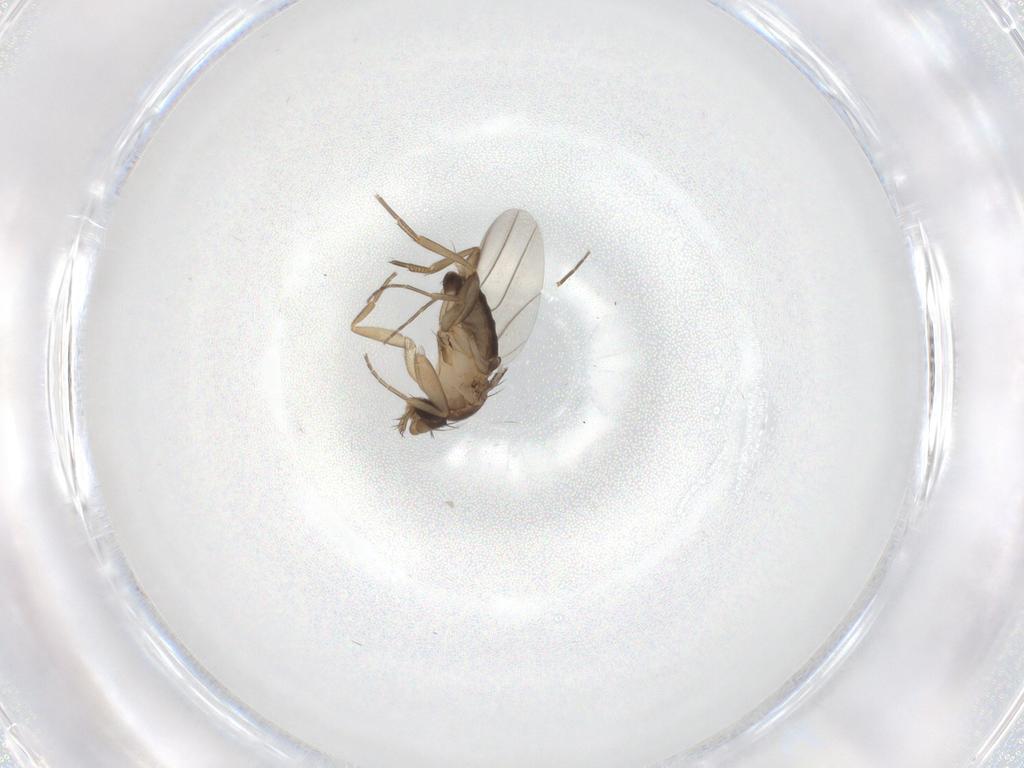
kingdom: Animalia
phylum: Arthropoda
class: Insecta
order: Diptera
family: Phoridae
